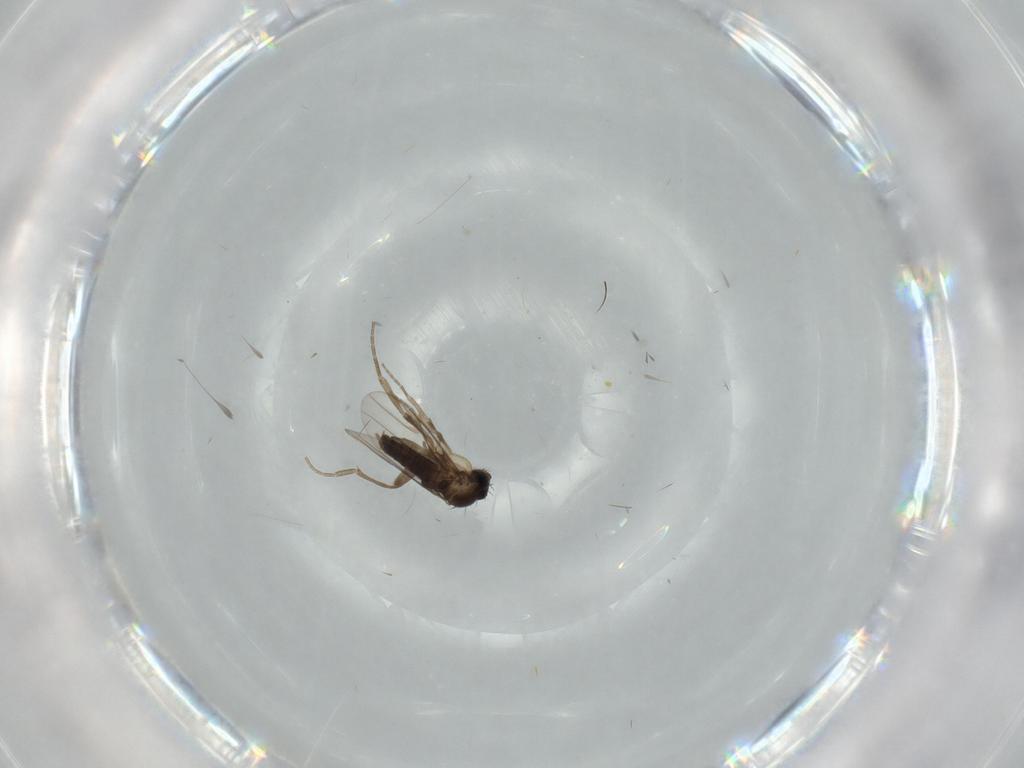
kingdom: Animalia
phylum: Arthropoda
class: Insecta
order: Diptera
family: Phoridae
